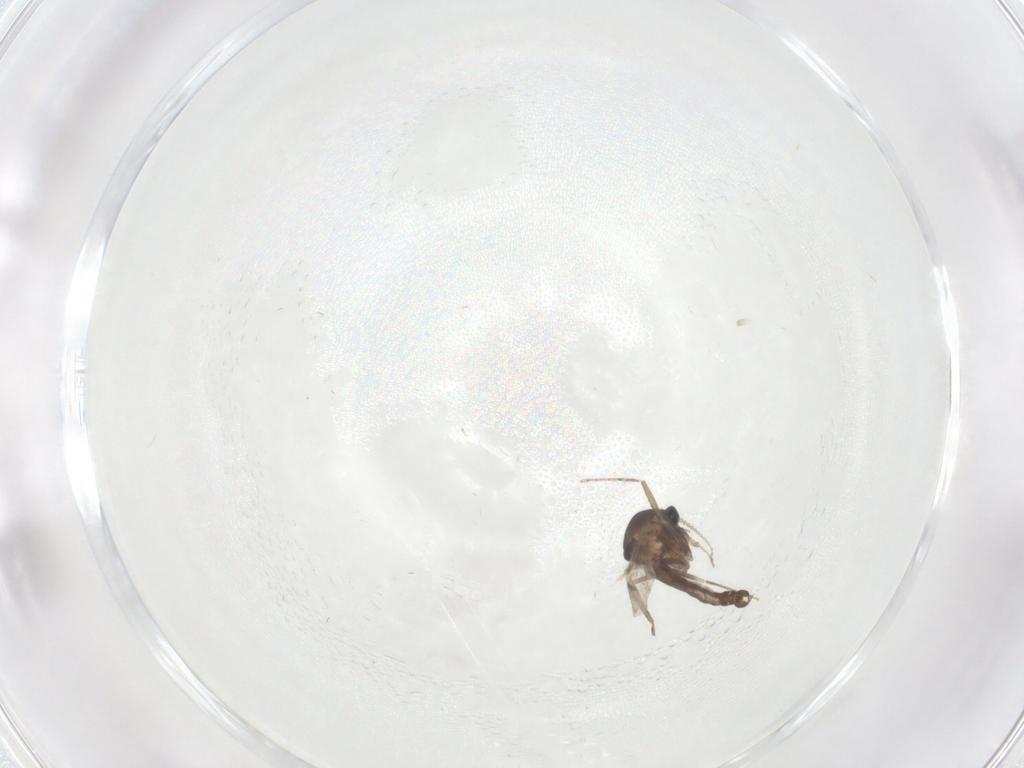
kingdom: Animalia
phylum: Arthropoda
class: Insecta
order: Diptera
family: Ceratopogonidae
